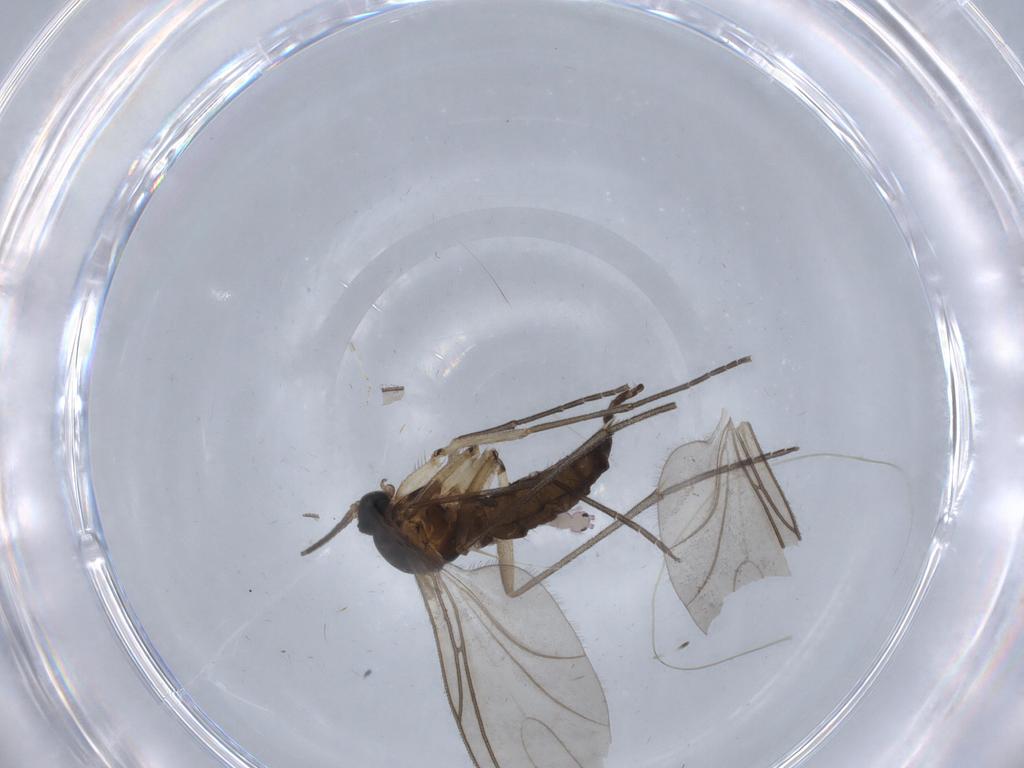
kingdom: Animalia
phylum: Arthropoda
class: Insecta
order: Diptera
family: Sciaridae
